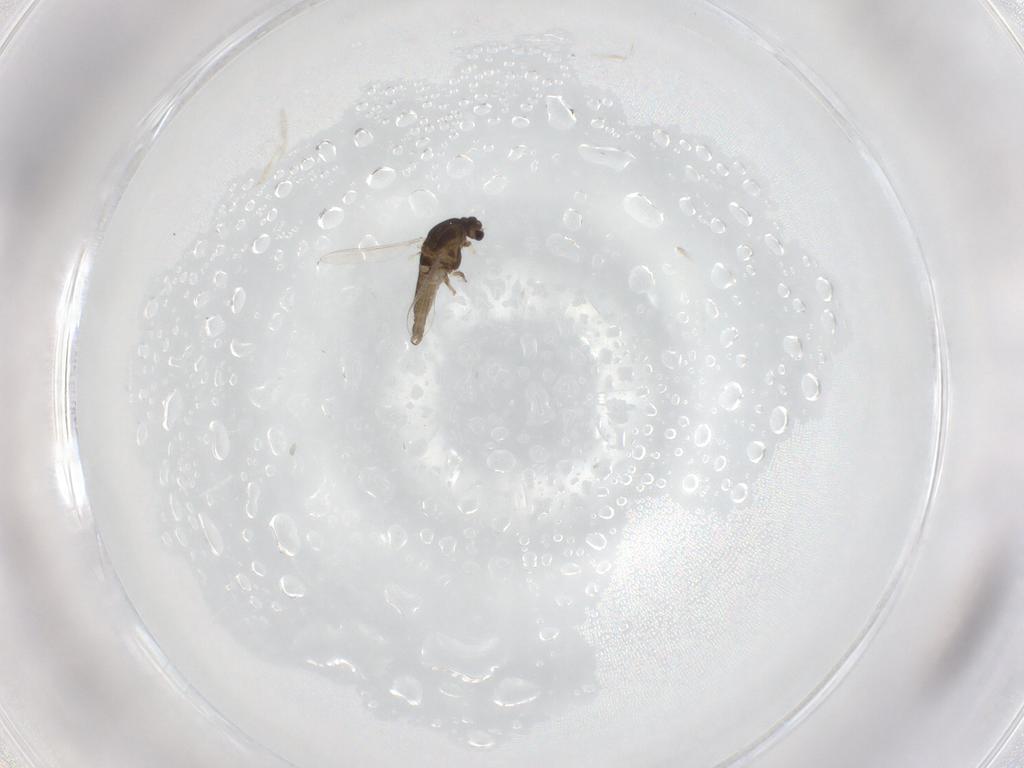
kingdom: Animalia
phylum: Arthropoda
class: Insecta
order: Diptera
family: Chironomidae
